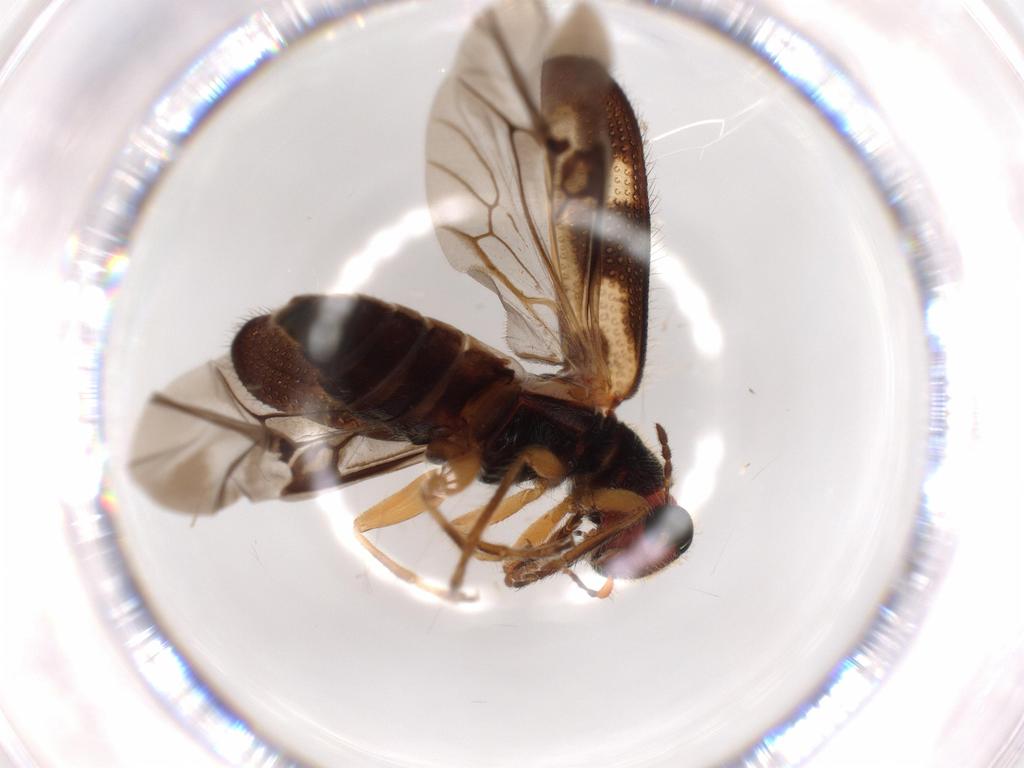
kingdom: Animalia
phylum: Arthropoda
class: Insecta
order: Coleoptera
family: Cleridae
